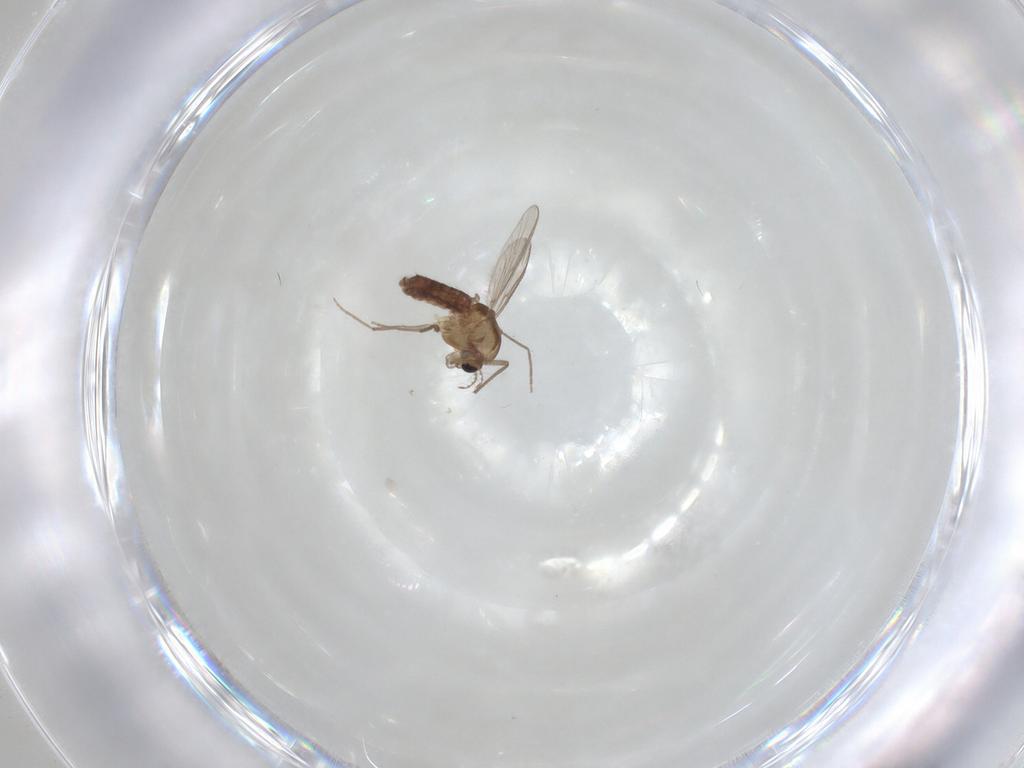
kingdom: Animalia
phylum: Arthropoda
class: Insecta
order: Diptera
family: Chironomidae
